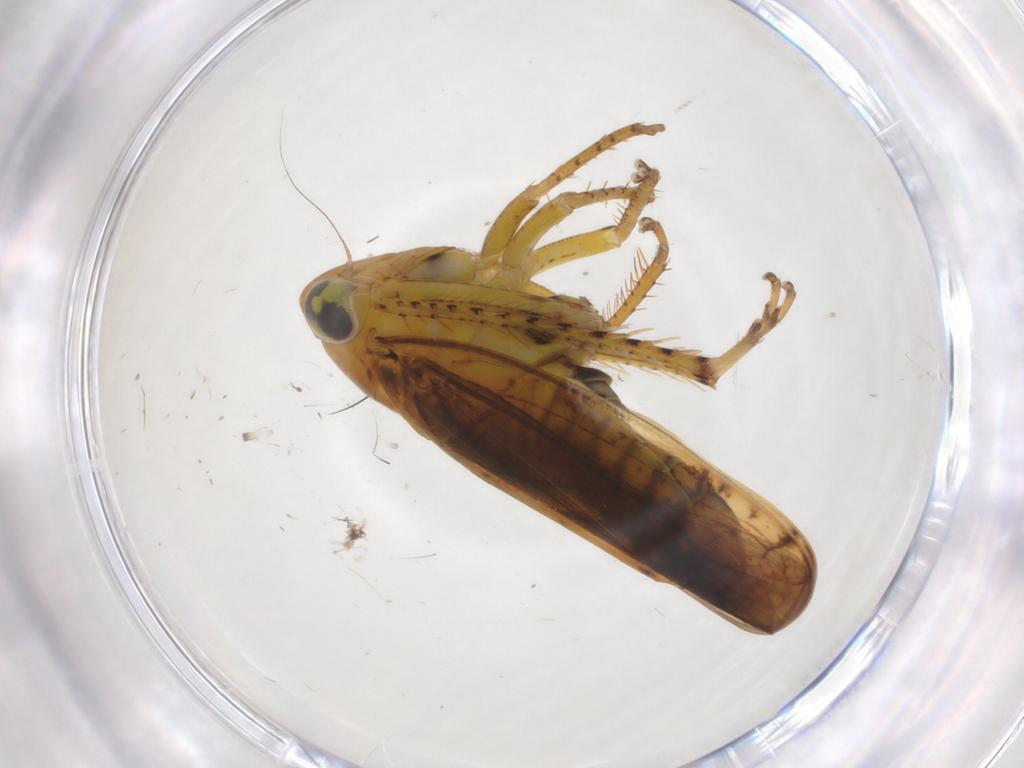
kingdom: Animalia
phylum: Arthropoda
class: Insecta
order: Hemiptera
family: Cicadellidae
